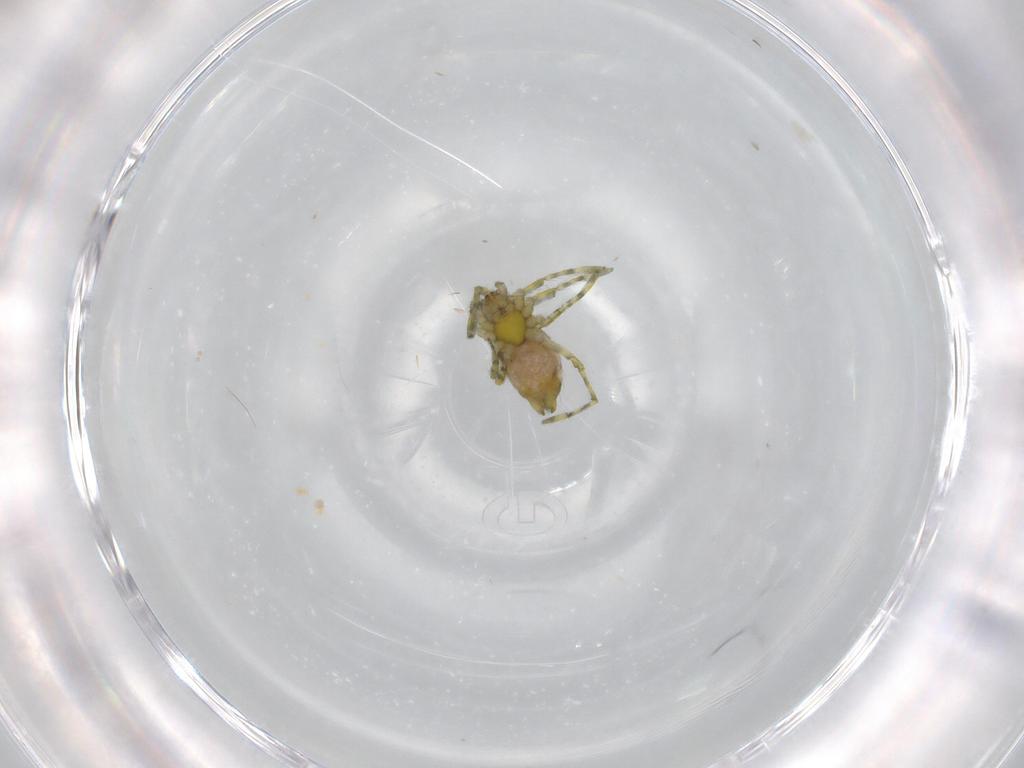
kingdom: Animalia
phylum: Arthropoda
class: Arachnida
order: Araneae
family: Dictynidae
